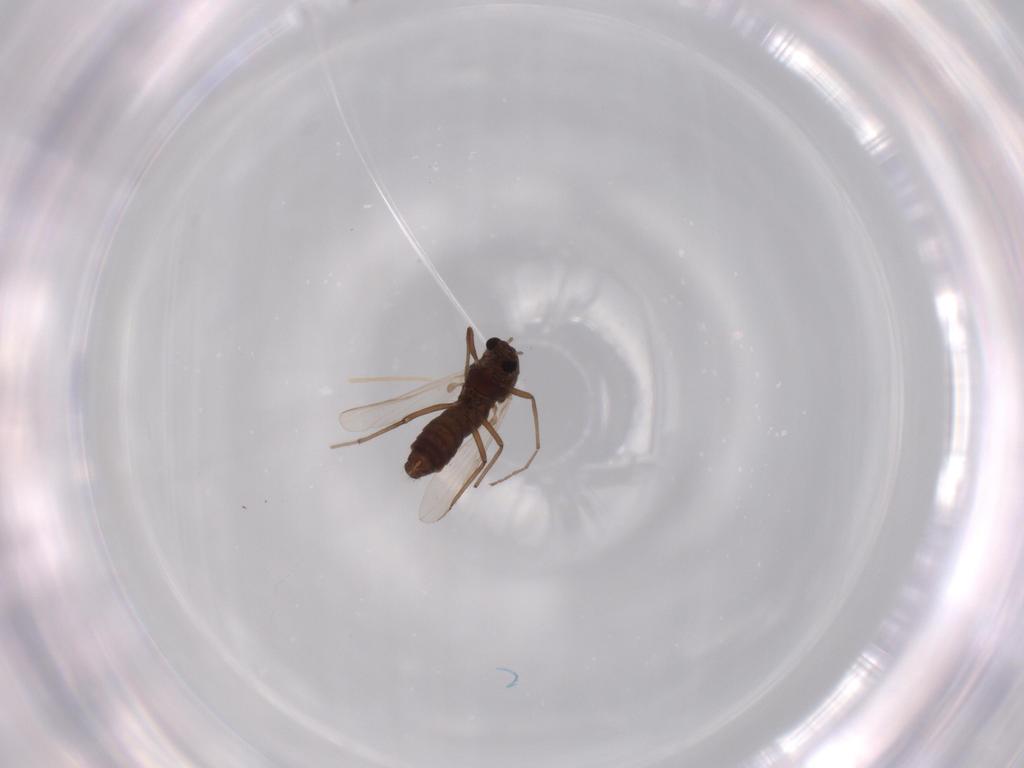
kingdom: Animalia
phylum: Arthropoda
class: Insecta
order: Diptera
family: Chironomidae
